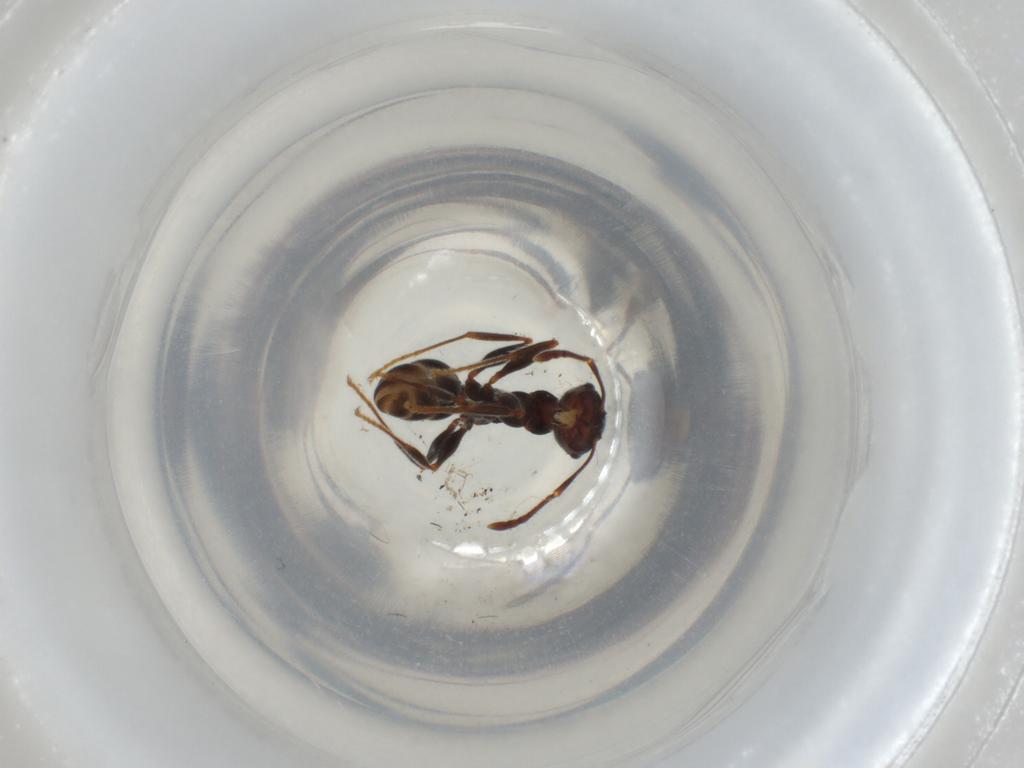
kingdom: Animalia
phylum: Arthropoda
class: Insecta
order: Hymenoptera
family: Formicidae
